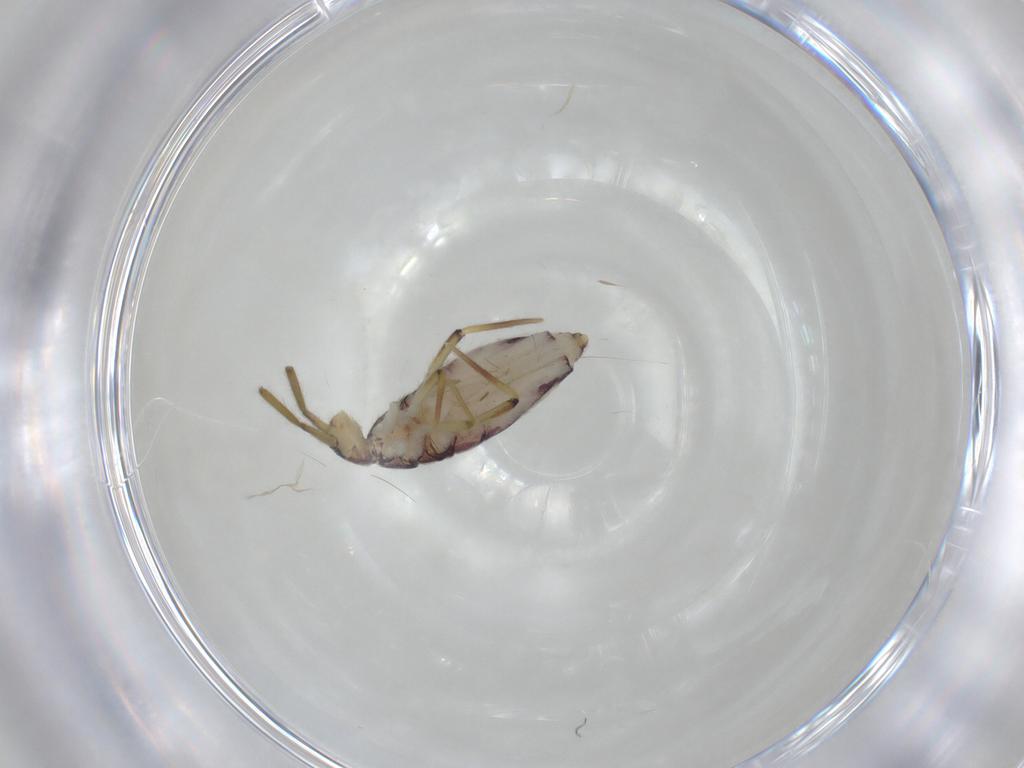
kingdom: Animalia
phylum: Arthropoda
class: Collembola
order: Entomobryomorpha
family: Entomobryidae
